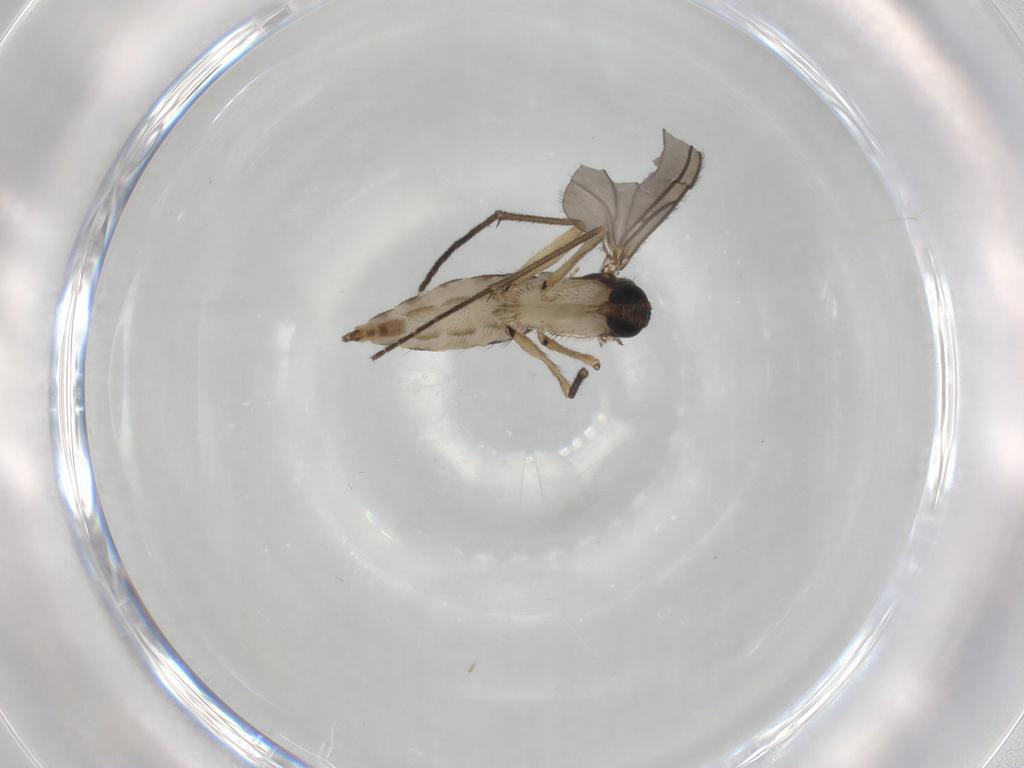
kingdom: Animalia
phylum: Arthropoda
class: Insecta
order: Diptera
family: Sciaridae
